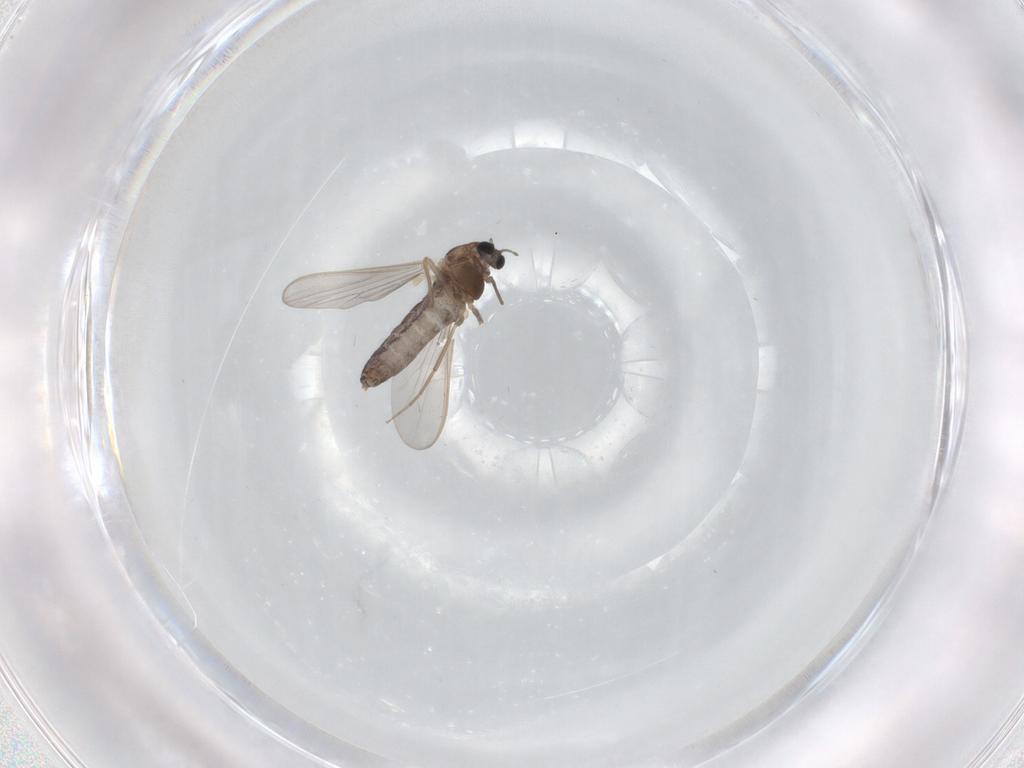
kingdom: Animalia
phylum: Arthropoda
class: Insecta
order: Diptera
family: Chironomidae
